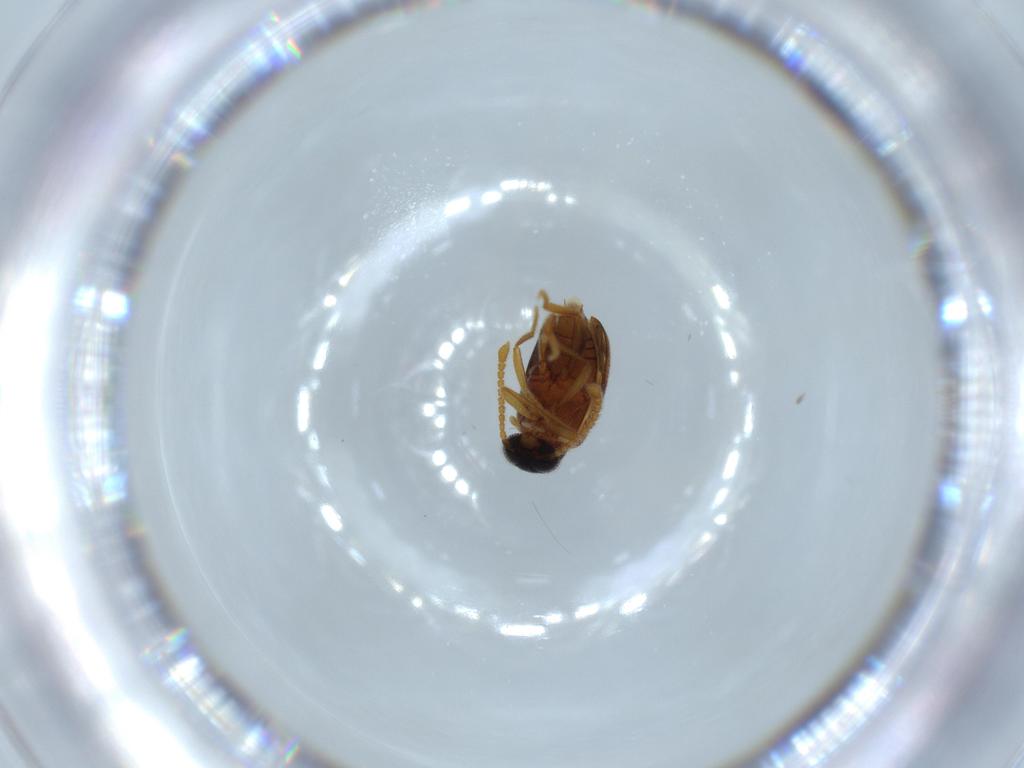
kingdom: Animalia
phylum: Arthropoda
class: Insecta
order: Coleoptera
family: Aderidae
